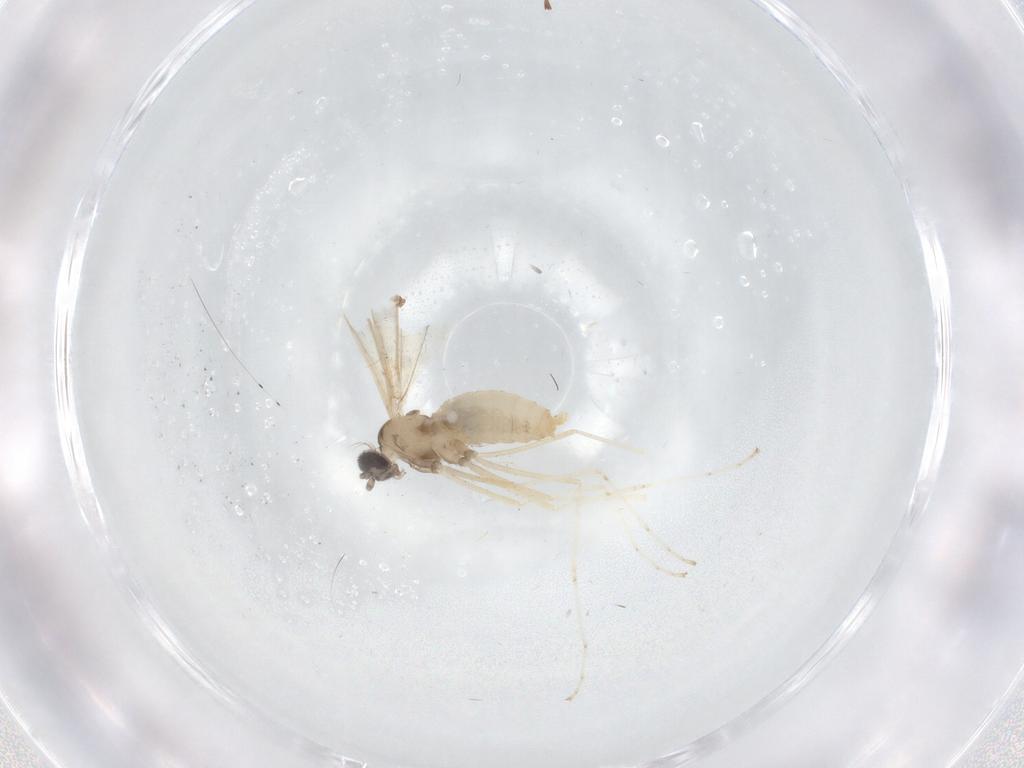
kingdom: Animalia
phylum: Arthropoda
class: Insecta
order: Diptera
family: Cecidomyiidae
